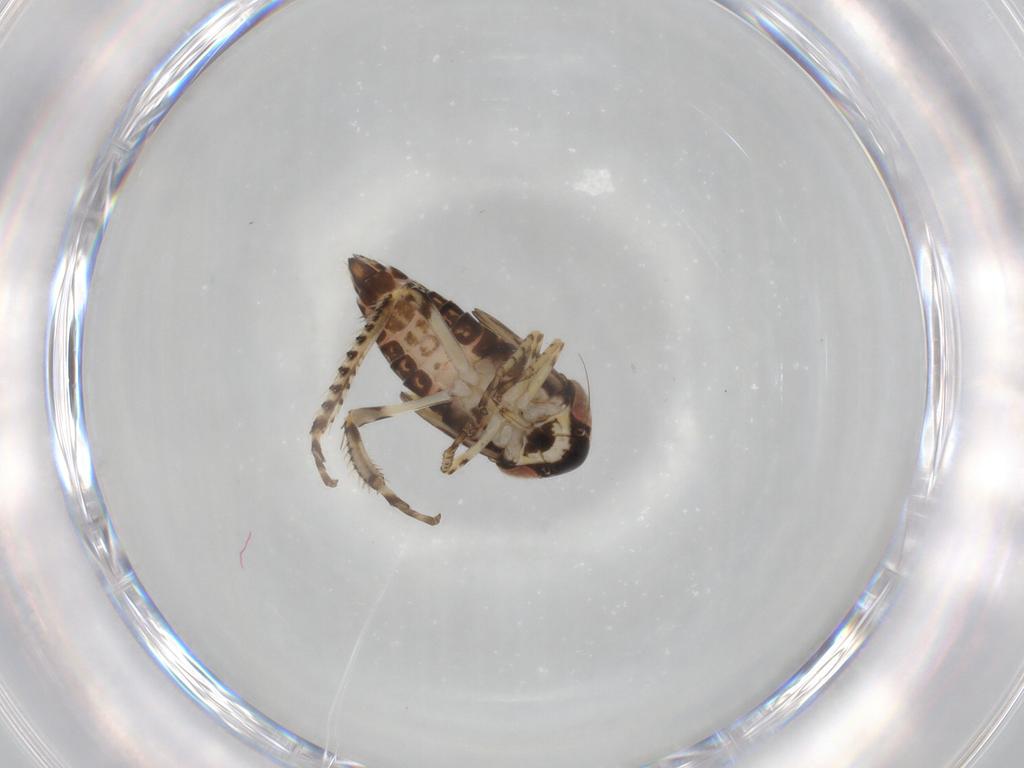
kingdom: Animalia
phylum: Arthropoda
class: Insecta
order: Hemiptera
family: Cicadellidae
